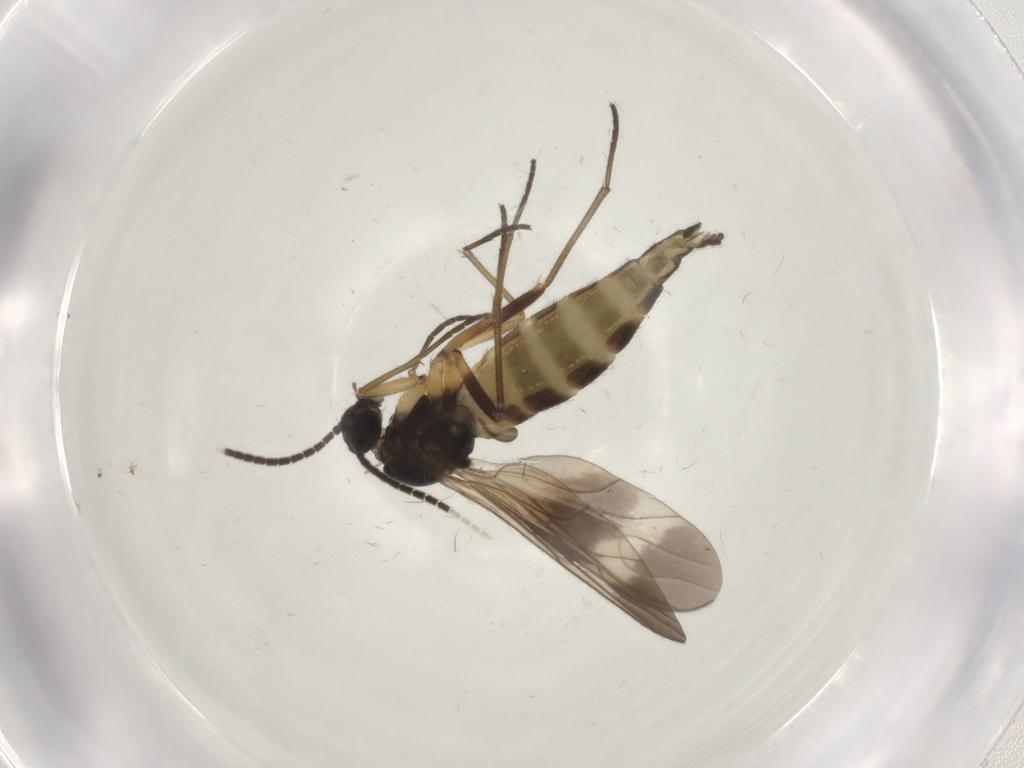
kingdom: Animalia
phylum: Arthropoda
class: Insecta
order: Diptera
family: Sciaridae
